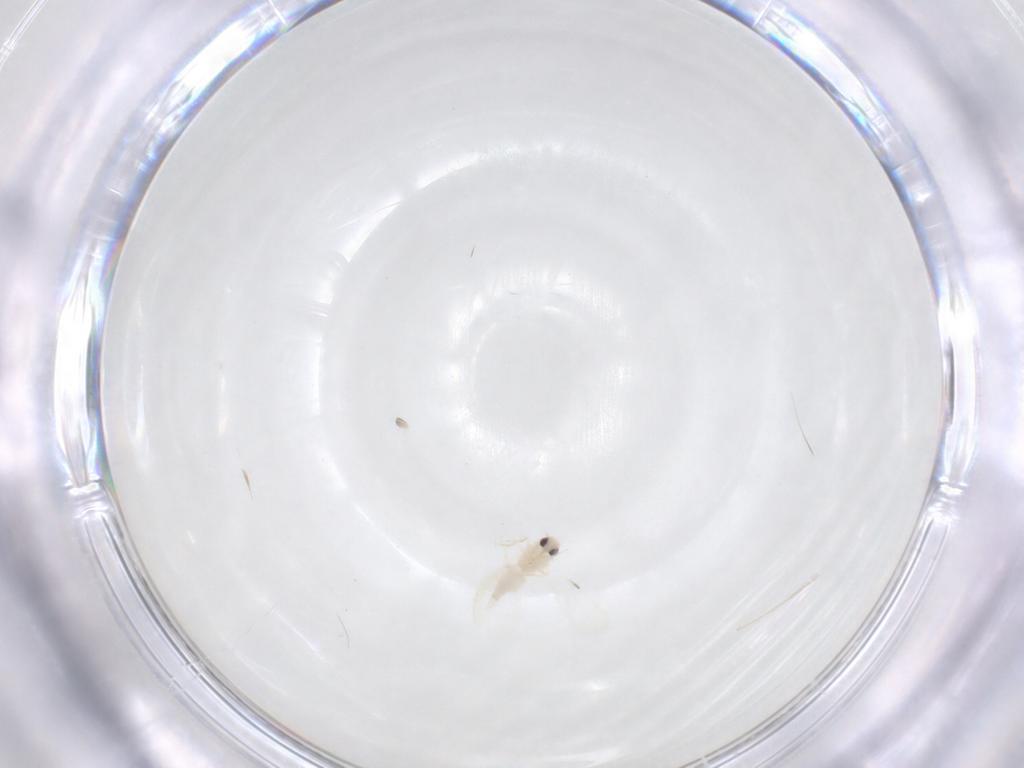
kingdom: Animalia
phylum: Arthropoda
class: Insecta
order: Hemiptera
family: Aleyrodidae
